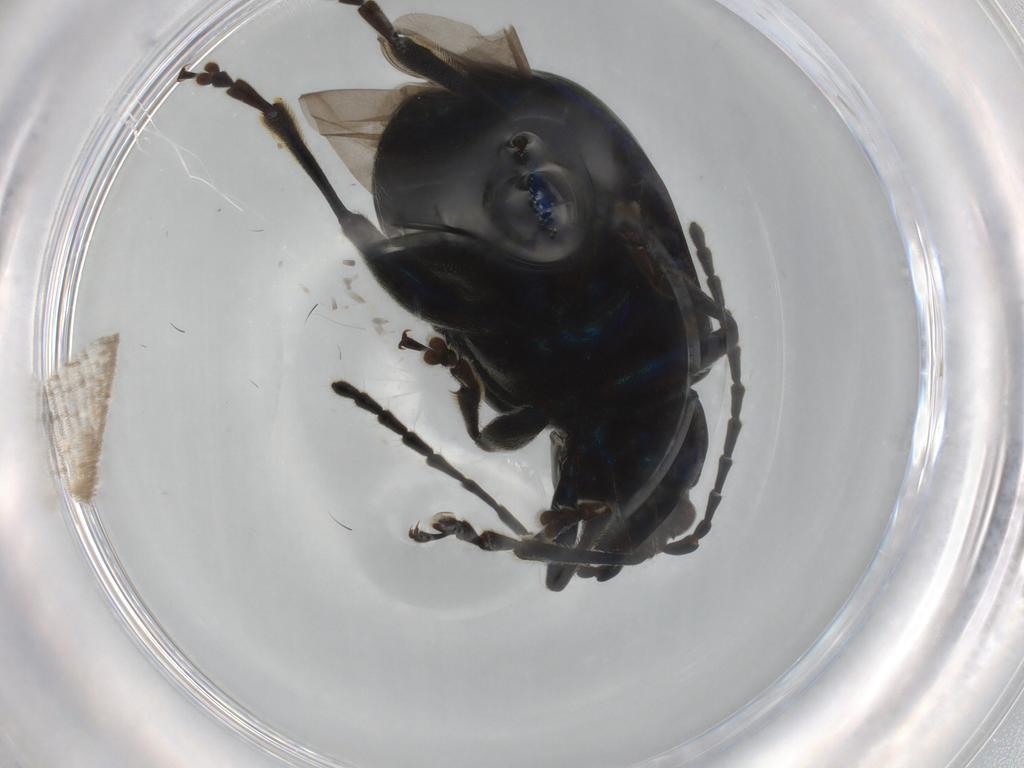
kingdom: Animalia
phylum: Arthropoda
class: Insecta
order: Coleoptera
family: Chrysomelidae
